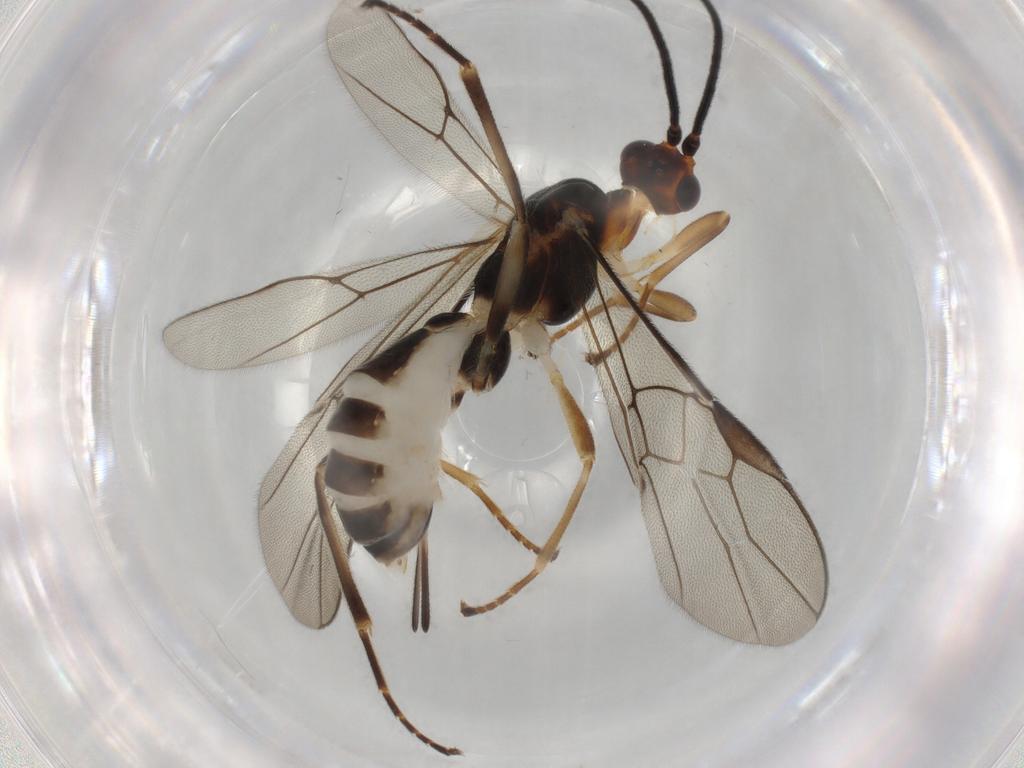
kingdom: Animalia
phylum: Arthropoda
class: Insecta
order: Hymenoptera
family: Braconidae
